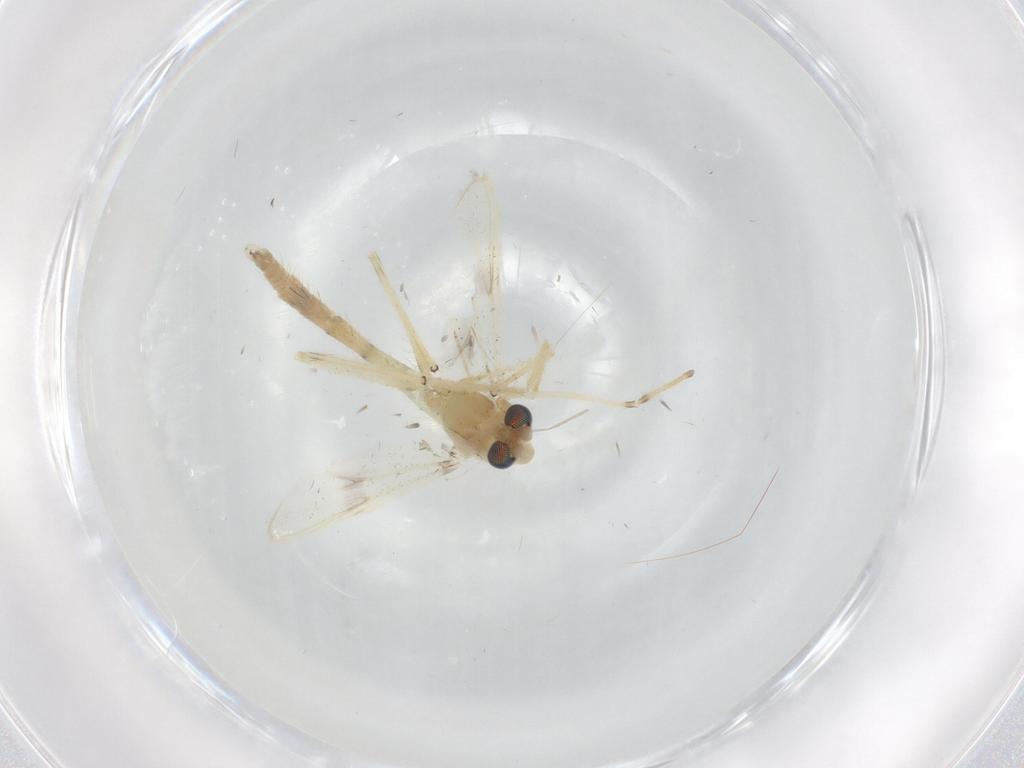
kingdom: Animalia
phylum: Arthropoda
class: Insecta
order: Diptera
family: Chironomidae
